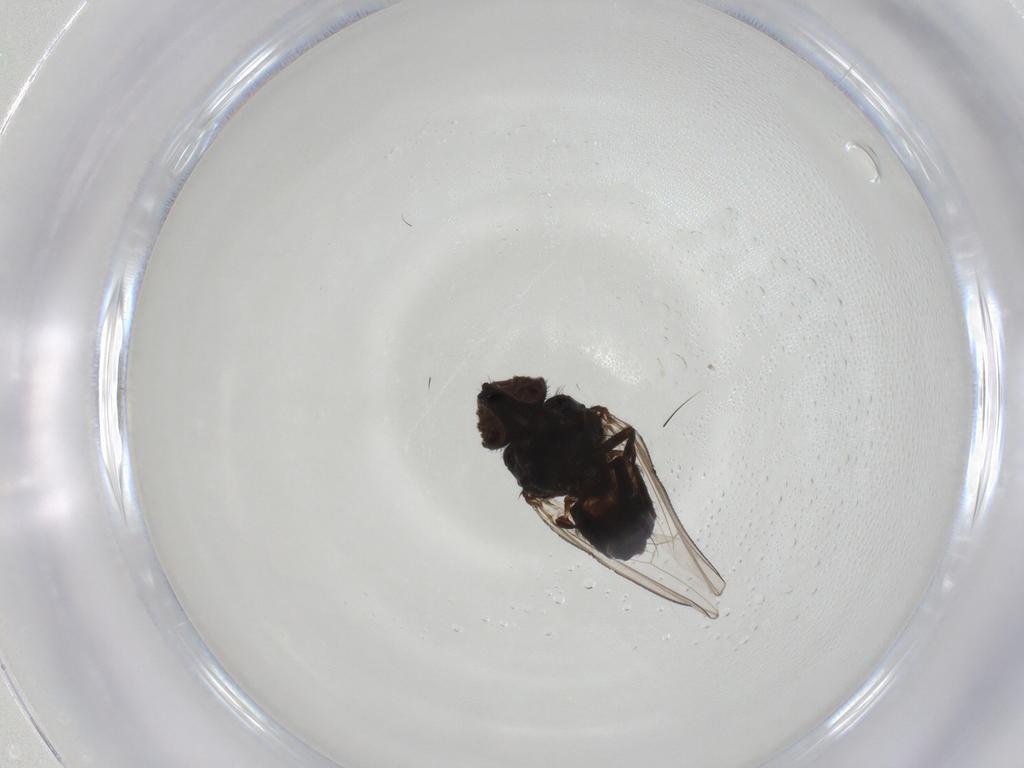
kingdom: Animalia
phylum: Arthropoda
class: Insecta
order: Diptera
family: Milichiidae
